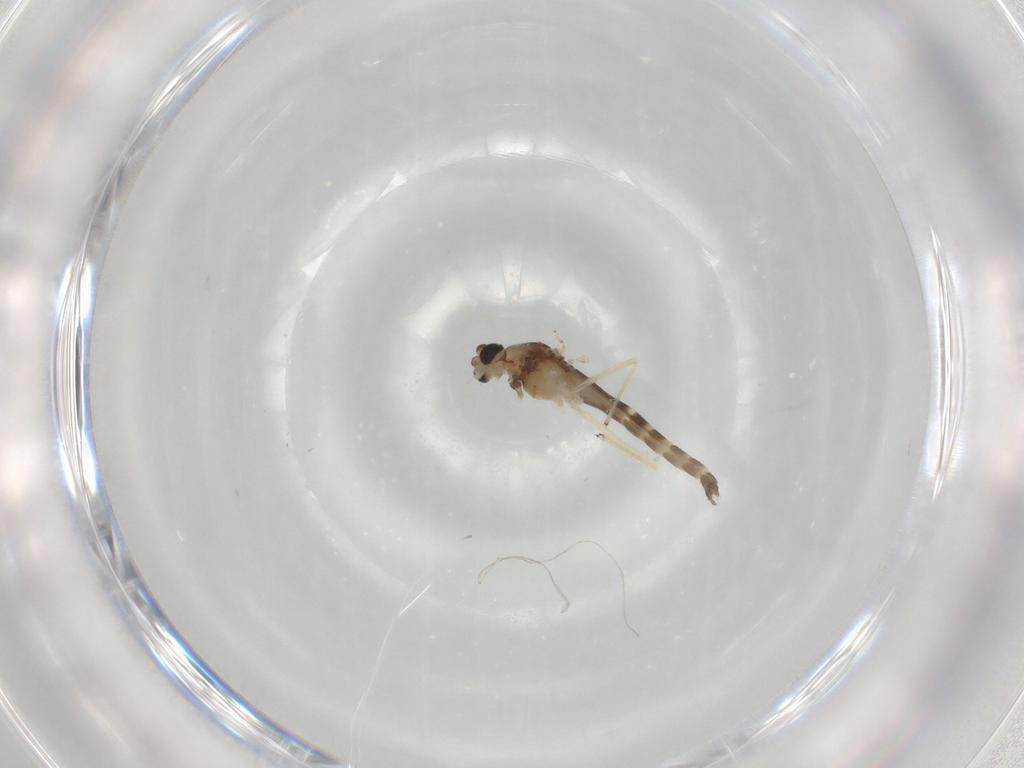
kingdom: Animalia
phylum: Arthropoda
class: Insecta
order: Diptera
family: Chironomidae
